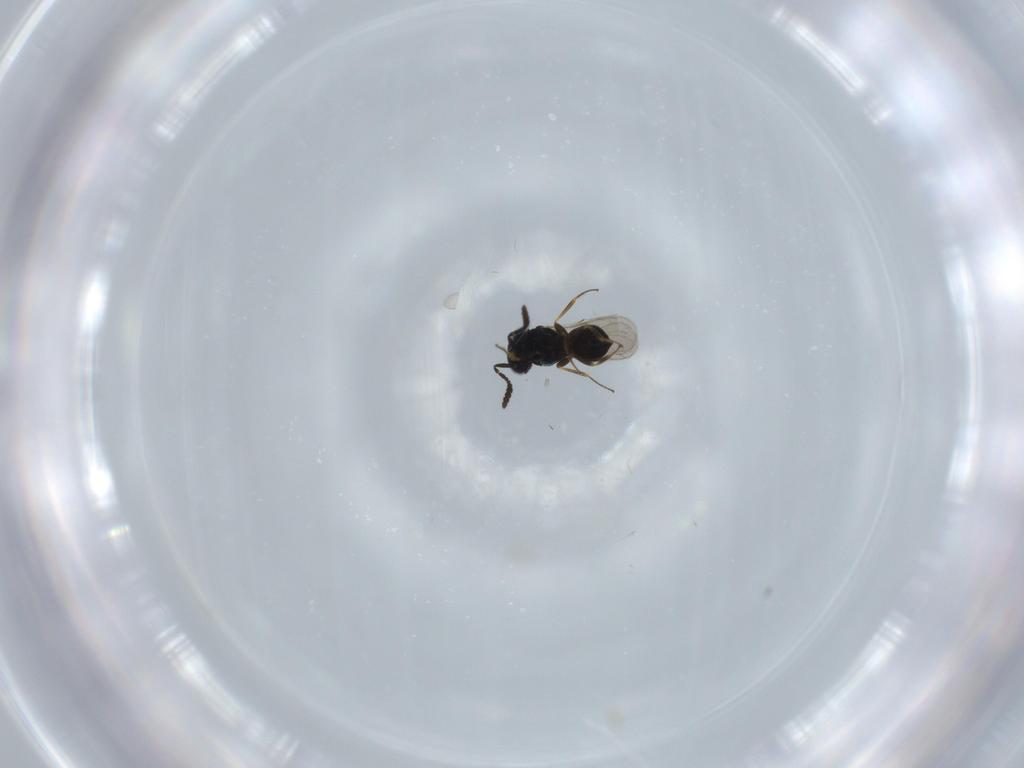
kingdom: Animalia
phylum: Arthropoda
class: Insecta
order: Hymenoptera
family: Scelionidae
